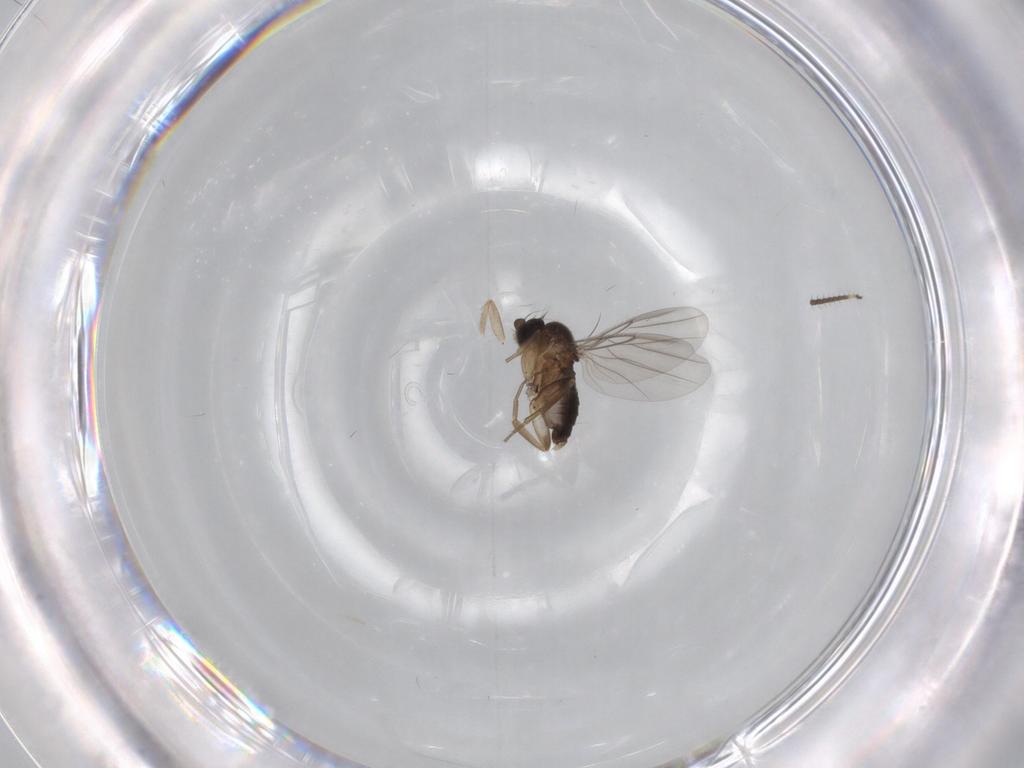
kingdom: Animalia
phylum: Arthropoda
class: Insecta
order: Diptera
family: Phoridae
